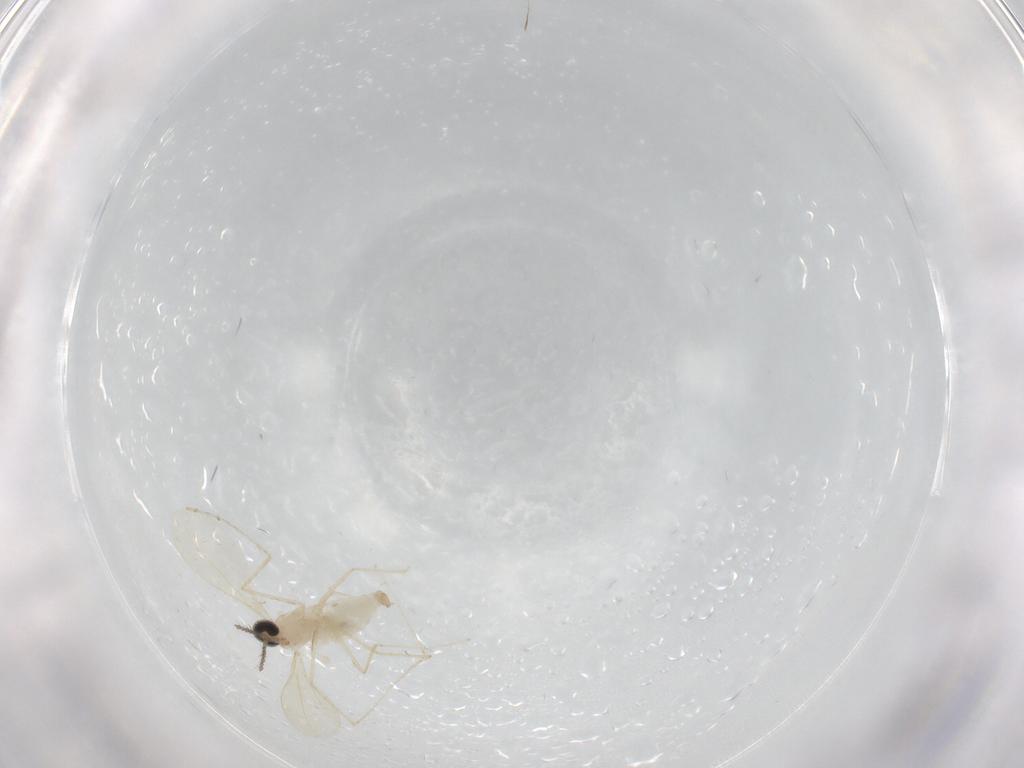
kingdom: Animalia
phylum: Arthropoda
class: Insecta
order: Diptera
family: Cecidomyiidae
